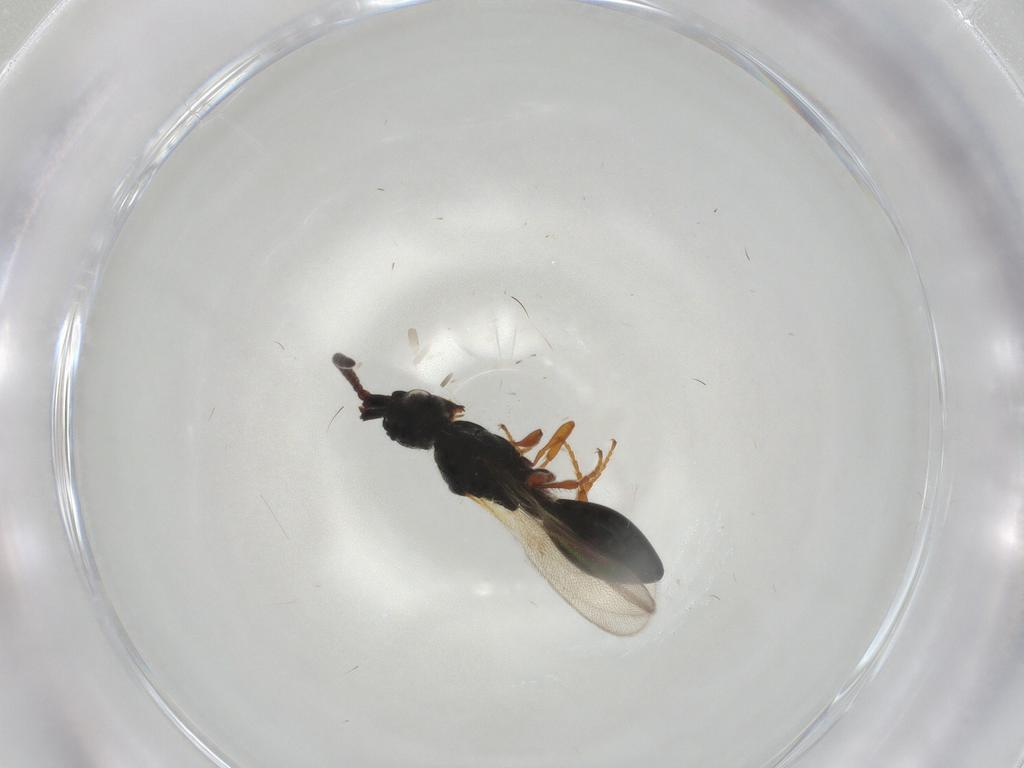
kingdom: Animalia
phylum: Arthropoda
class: Insecta
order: Hymenoptera
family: Diapriidae
